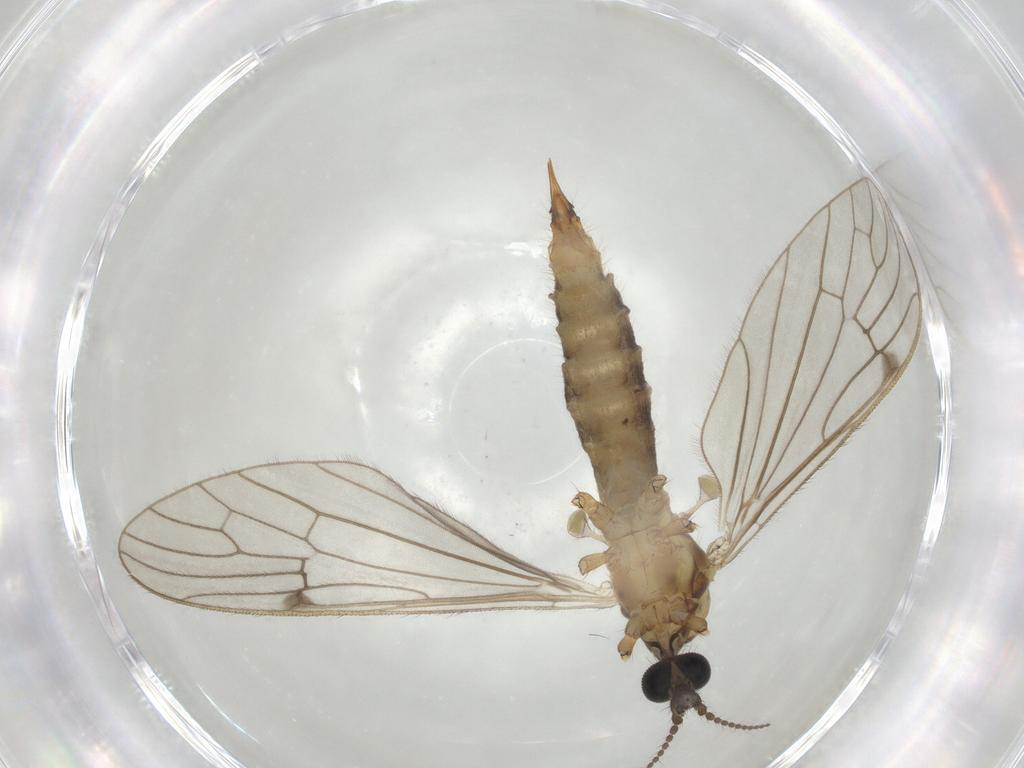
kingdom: Animalia
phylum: Arthropoda
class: Insecta
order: Diptera
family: Limoniidae
